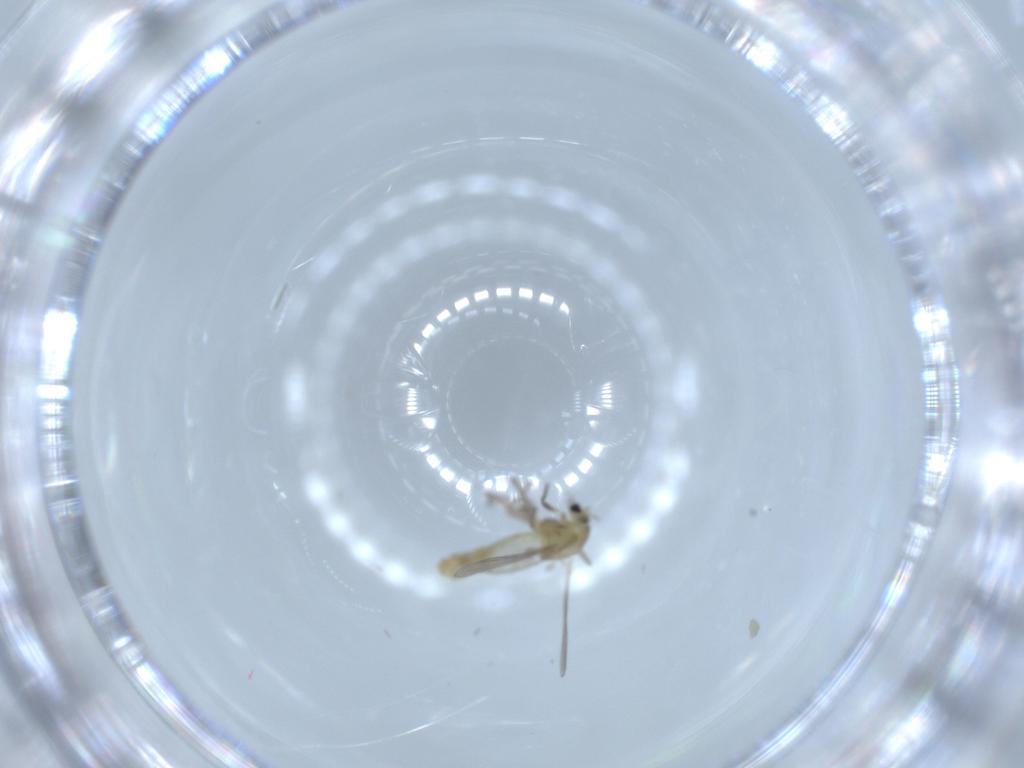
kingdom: Animalia
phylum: Arthropoda
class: Insecta
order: Diptera
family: Chironomidae
